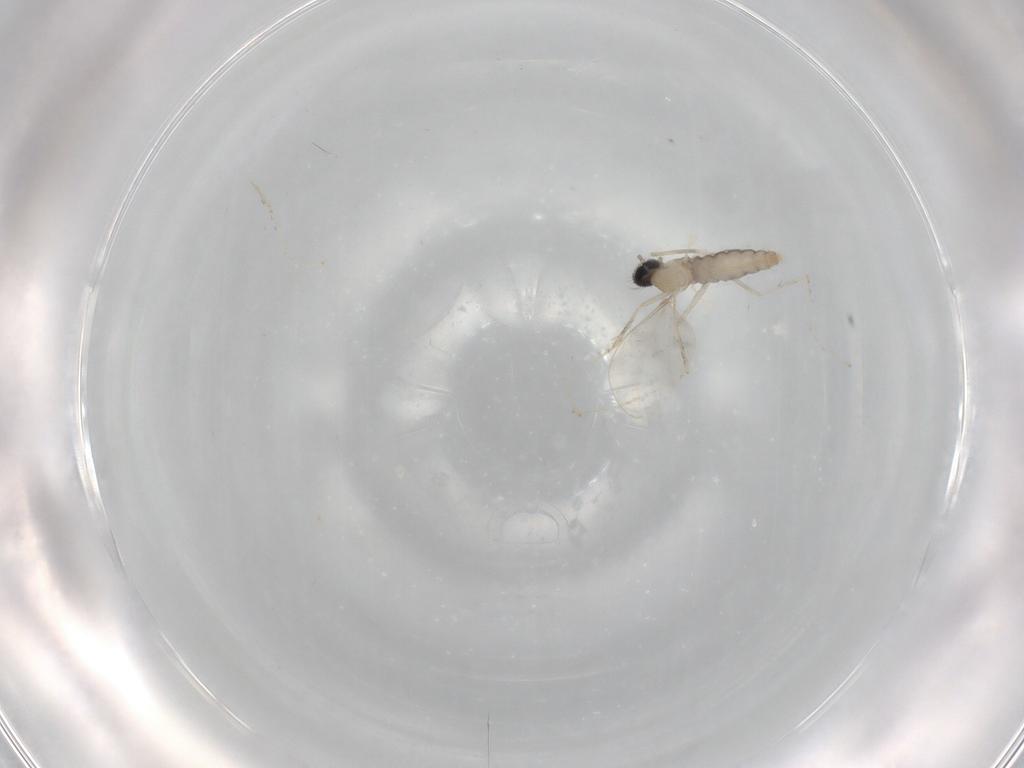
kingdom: Animalia
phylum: Arthropoda
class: Insecta
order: Diptera
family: Cecidomyiidae
